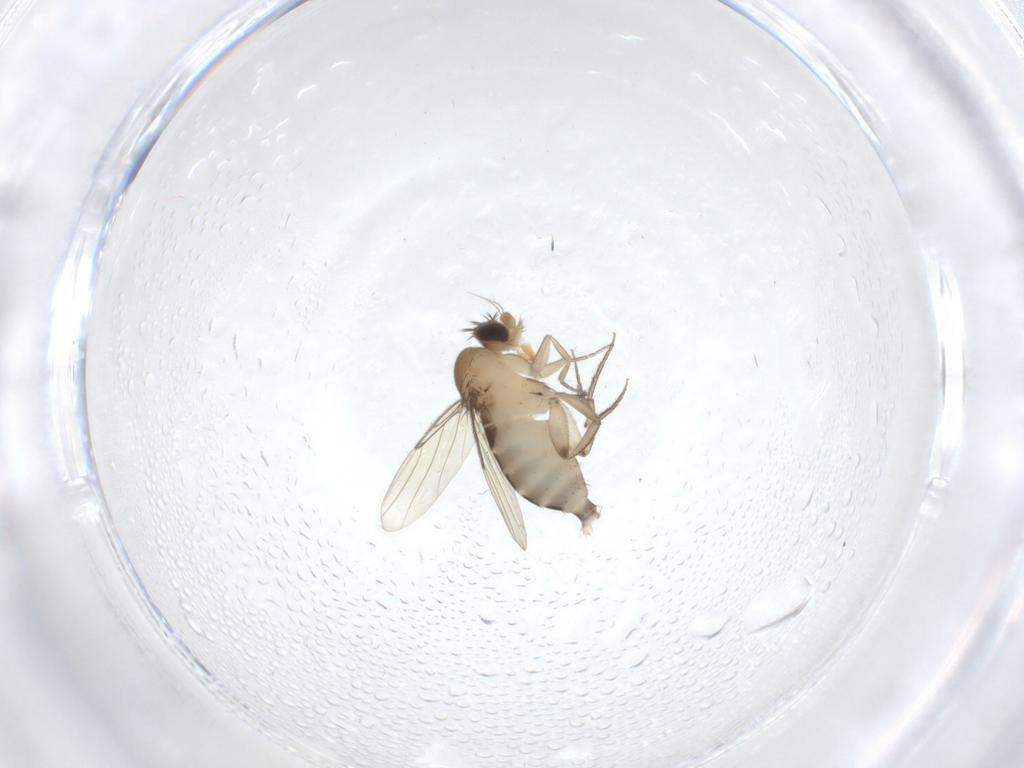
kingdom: Animalia
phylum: Arthropoda
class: Insecta
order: Diptera
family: Phoridae
